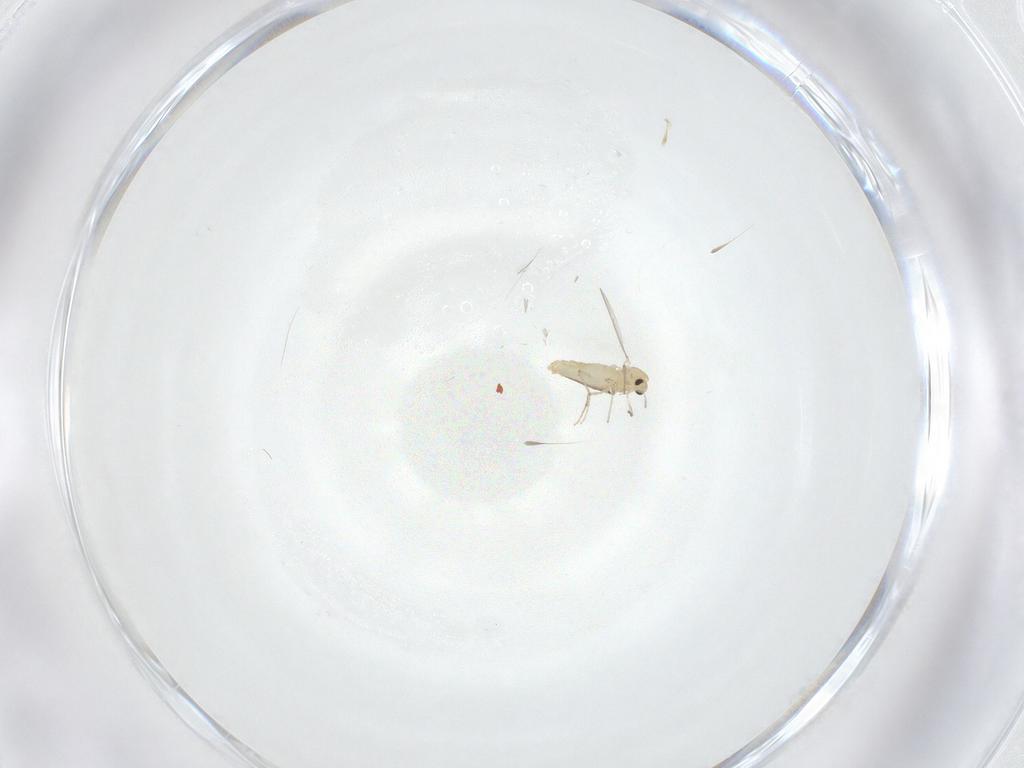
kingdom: Animalia
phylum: Arthropoda
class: Insecta
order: Diptera
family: Chironomidae
